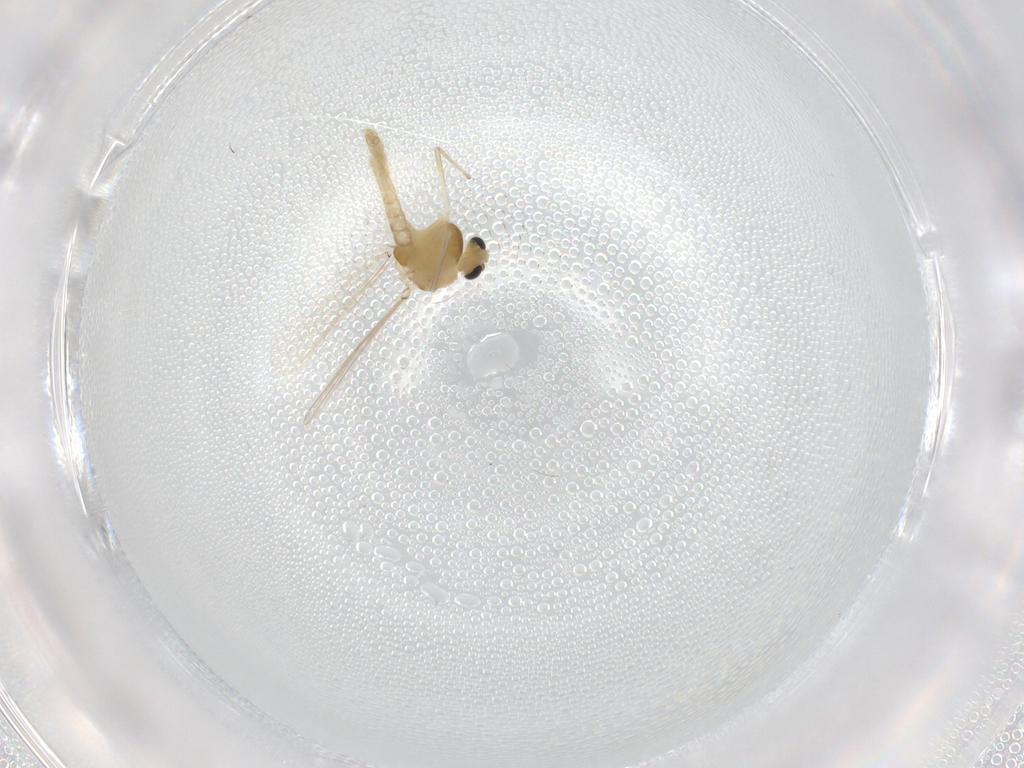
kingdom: Animalia
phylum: Arthropoda
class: Insecta
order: Diptera
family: Chironomidae
